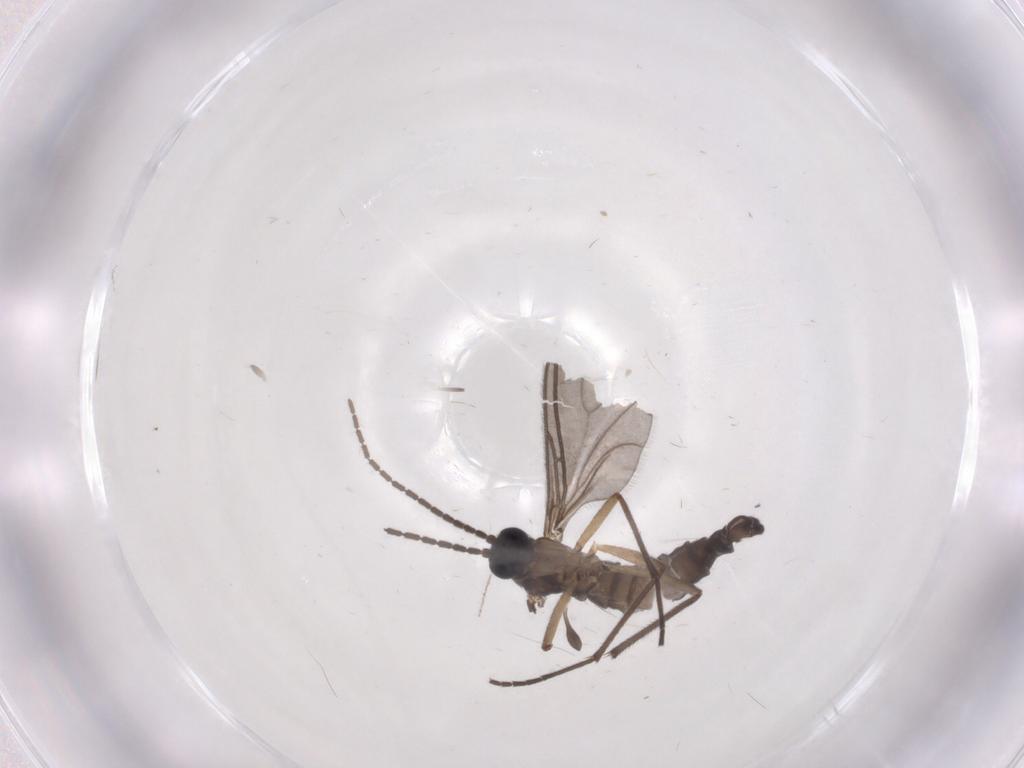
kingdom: Animalia
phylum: Arthropoda
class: Insecta
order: Diptera
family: Sciaridae
